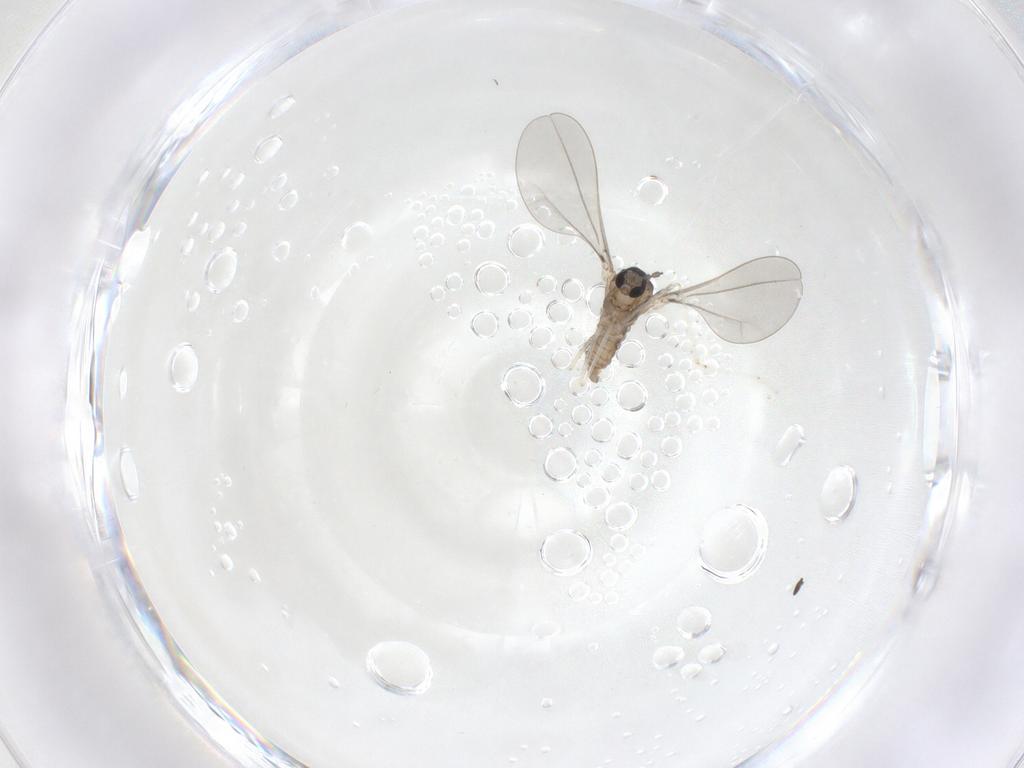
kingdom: Animalia
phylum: Arthropoda
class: Insecta
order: Diptera
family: Cecidomyiidae
